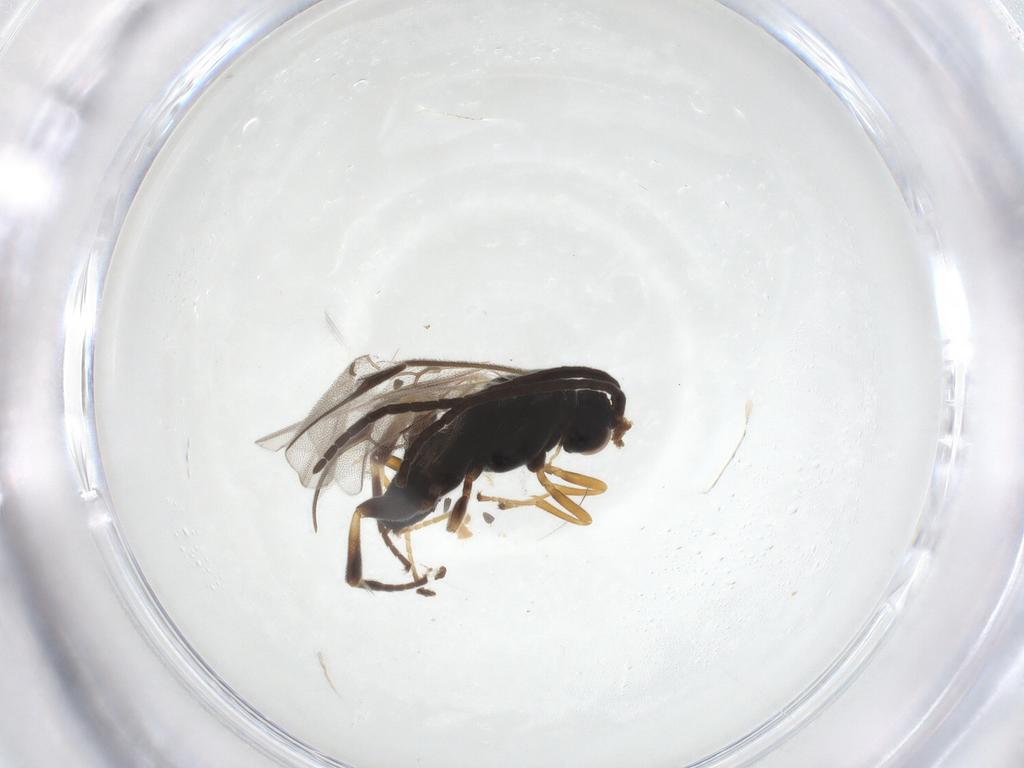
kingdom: Animalia
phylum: Arthropoda
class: Insecta
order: Hymenoptera
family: Braconidae
